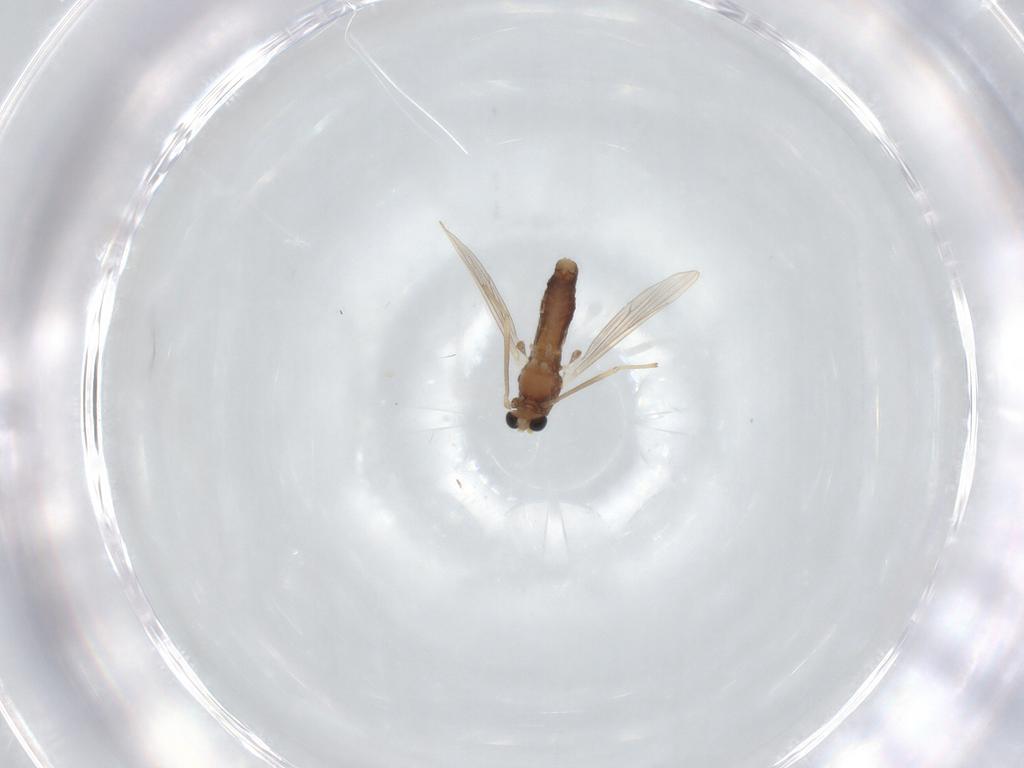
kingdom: Animalia
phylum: Arthropoda
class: Insecta
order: Diptera
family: Chironomidae
